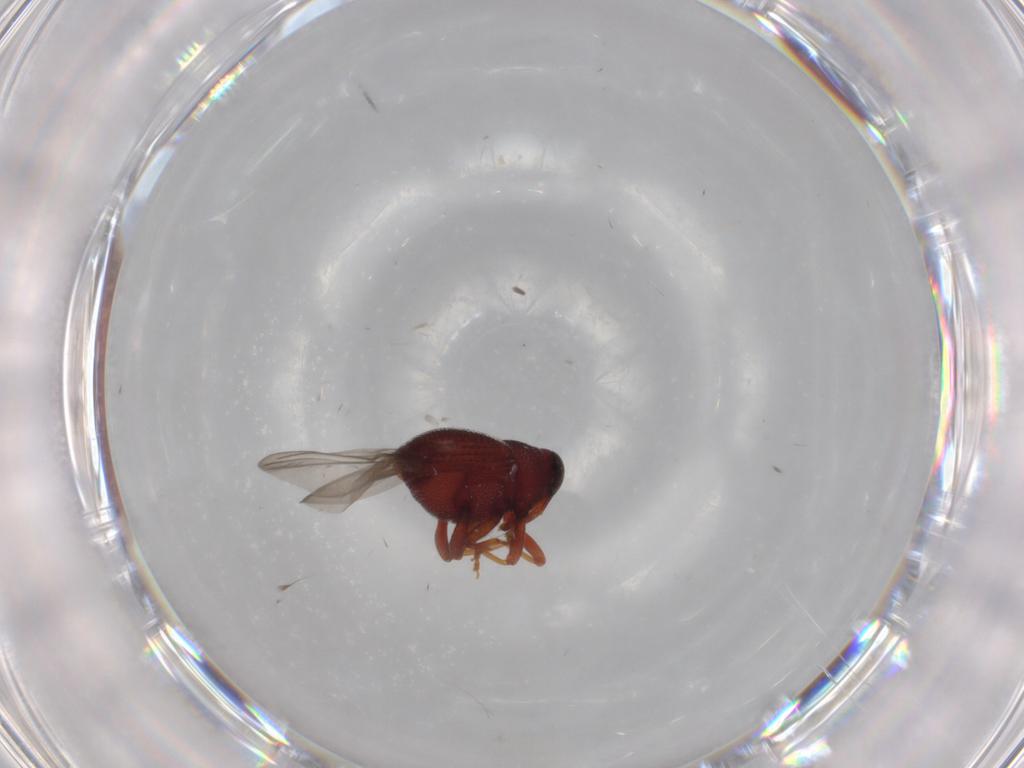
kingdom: Animalia
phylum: Arthropoda
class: Insecta
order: Coleoptera
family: Curculionidae
